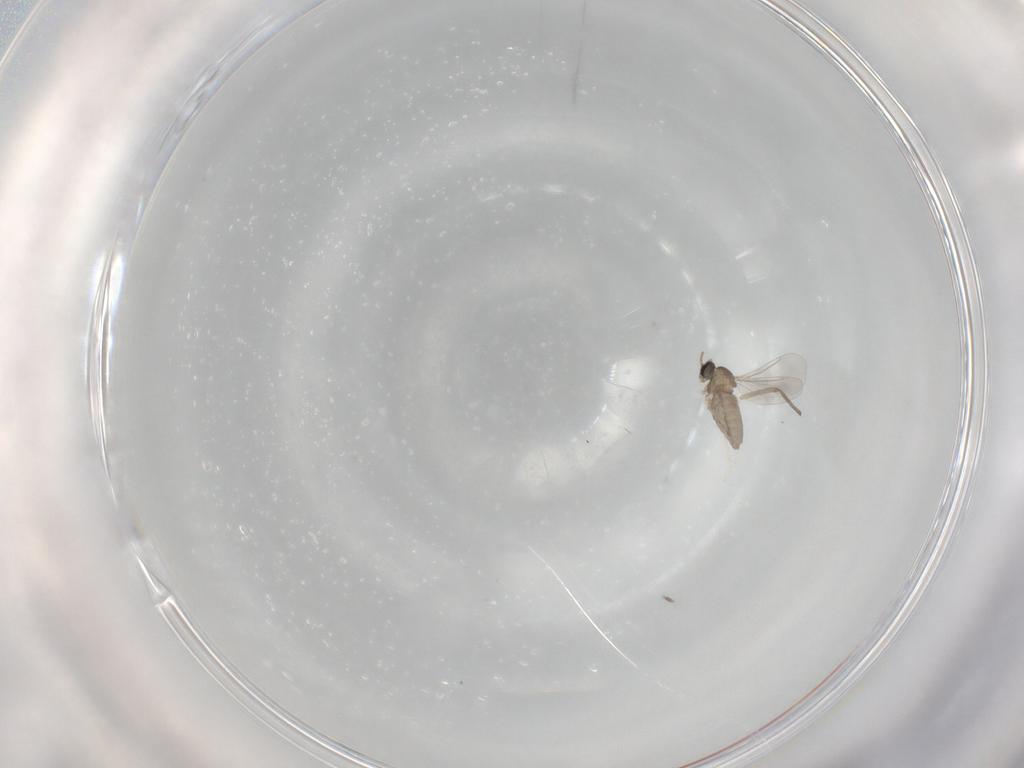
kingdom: Animalia
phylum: Arthropoda
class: Insecta
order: Diptera
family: Cecidomyiidae
